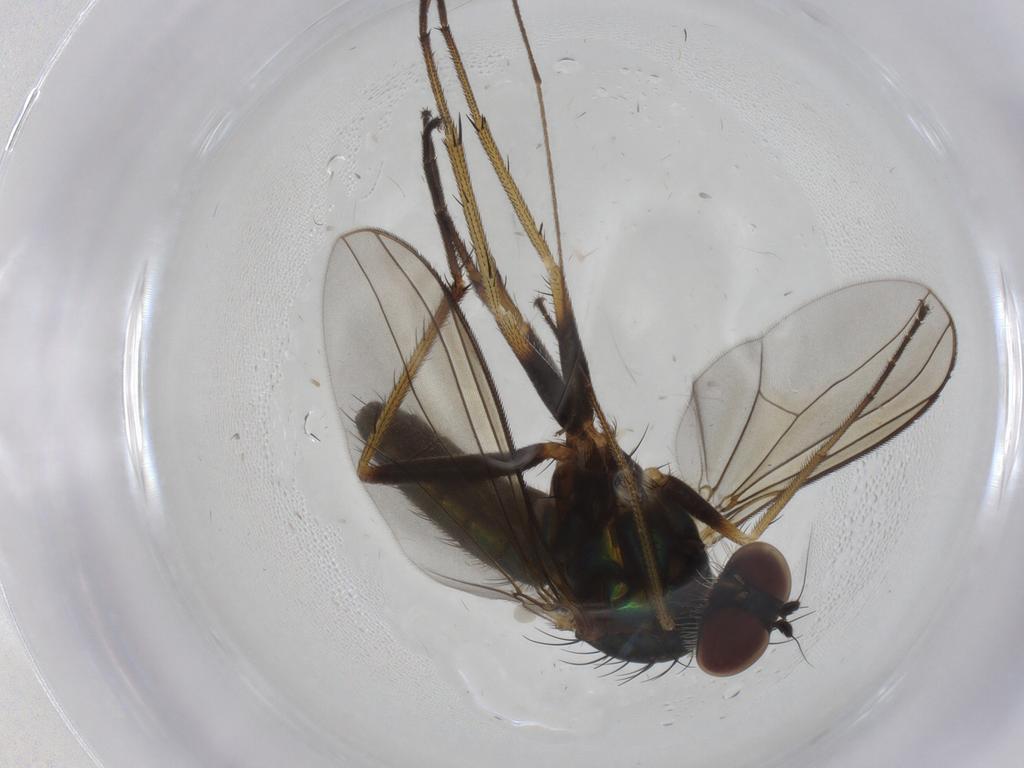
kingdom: Animalia
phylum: Arthropoda
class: Insecta
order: Diptera
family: Dolichopodidae
